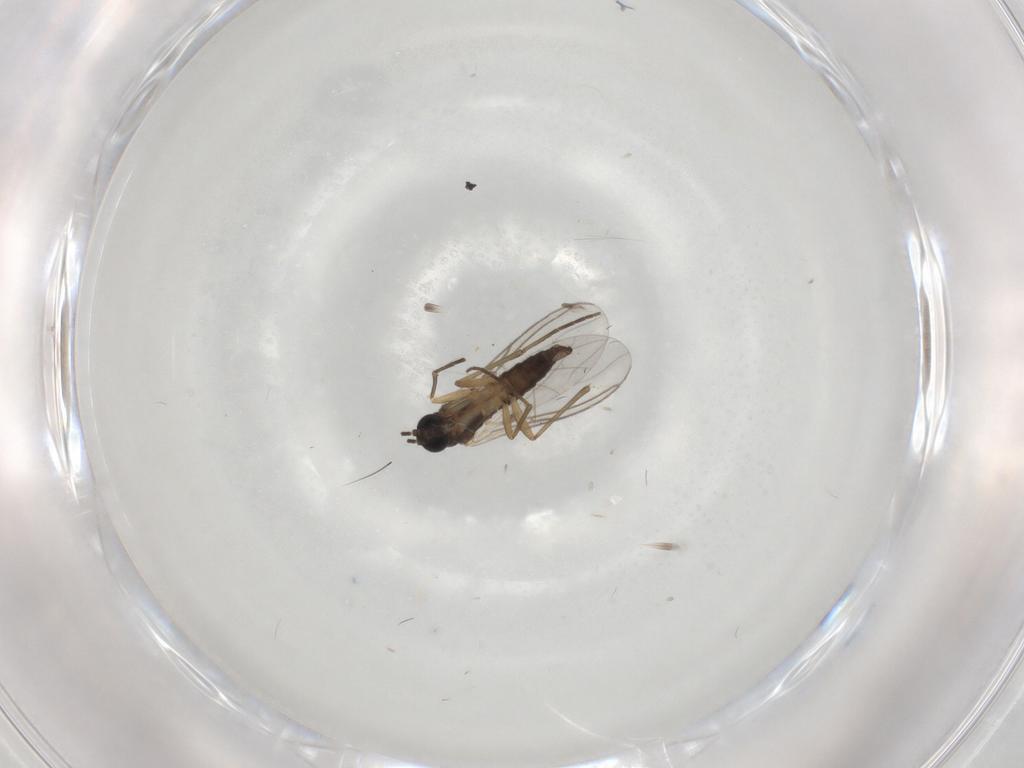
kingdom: Animalia
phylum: Arthropoda
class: Insecta
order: Diptera
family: Sciaridae
